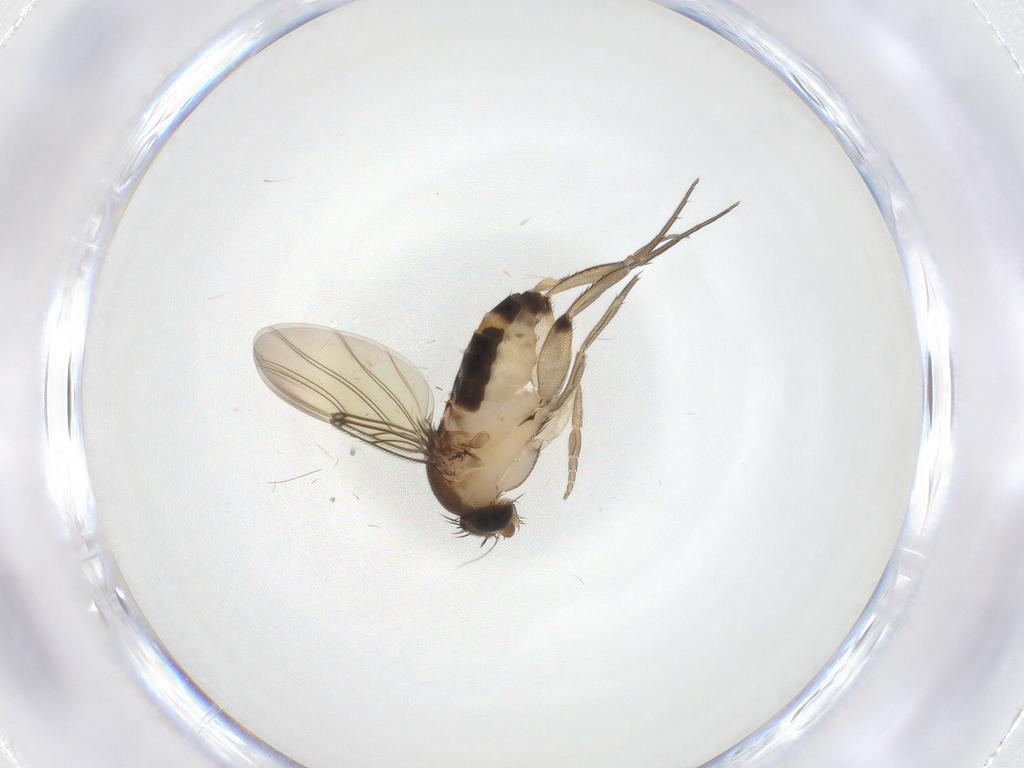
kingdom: Animalia
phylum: Arthropoda
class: Insecta
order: Diptera
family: Phoridae
